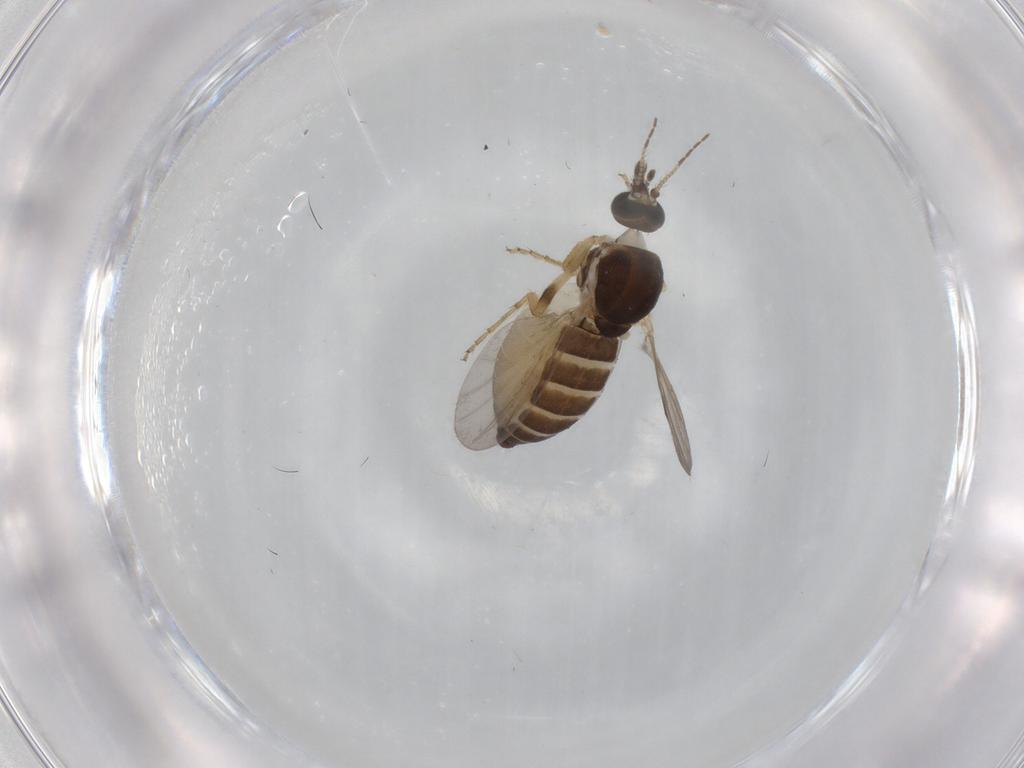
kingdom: Animalia
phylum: Arthropoda
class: Insecta
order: Diptera
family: Ceratopogonidae
